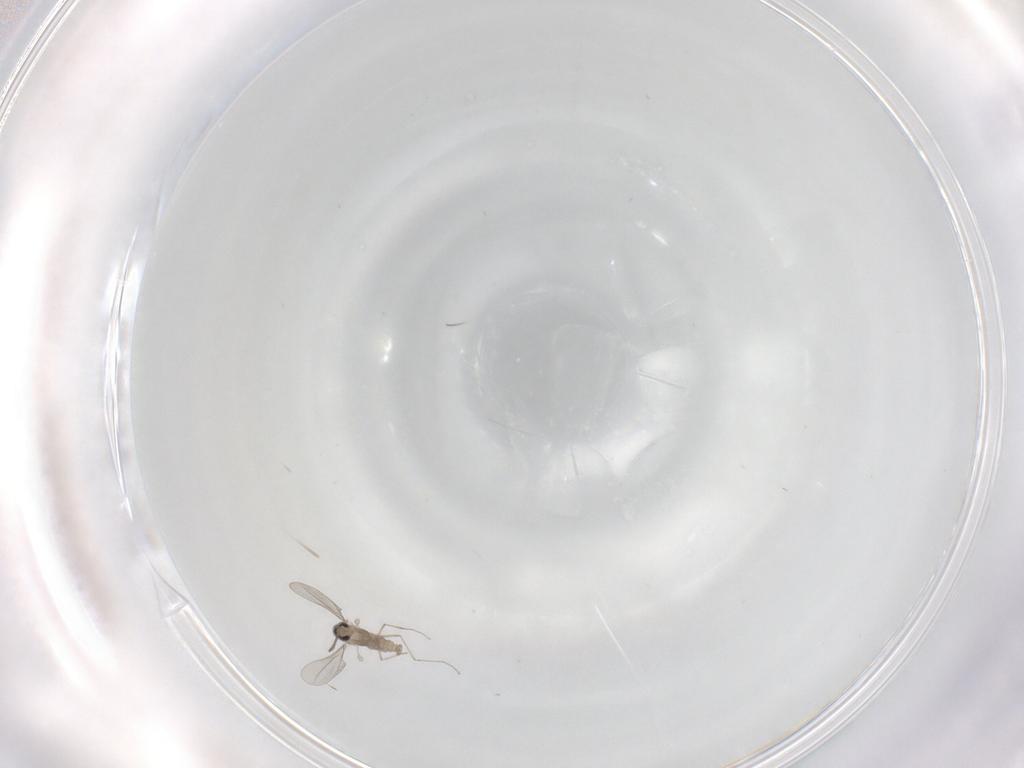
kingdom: Animalia
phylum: Arthropoda
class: Insecta
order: Diptera
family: Cecidomyiidae
